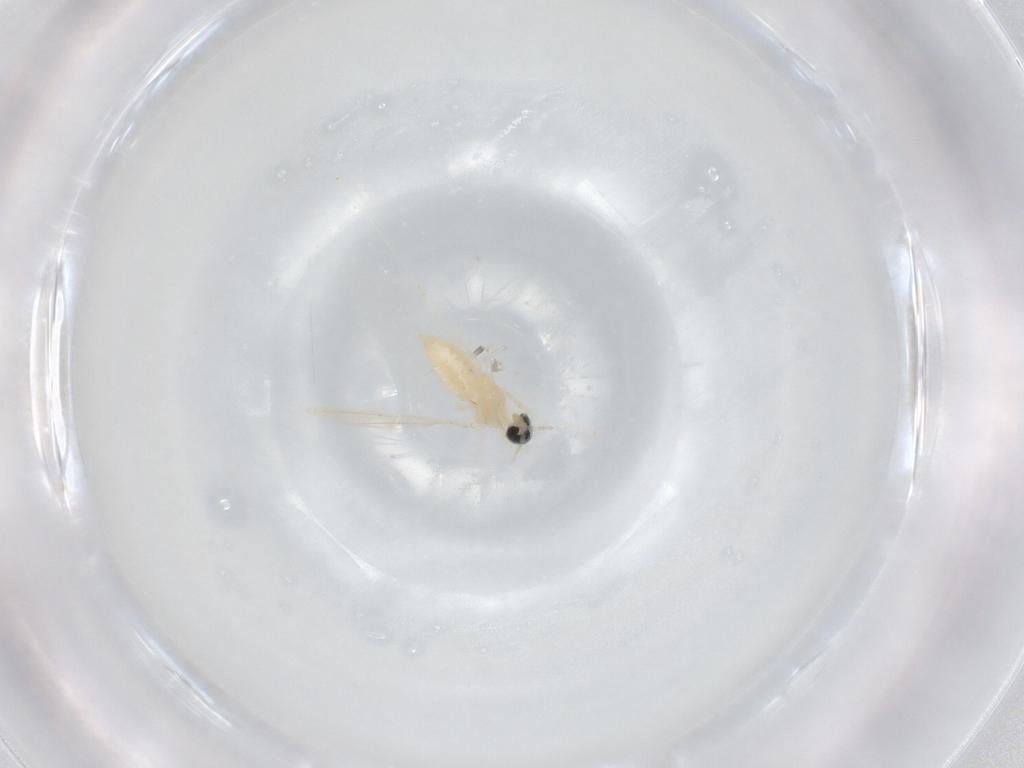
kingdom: Animalia
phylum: Arthropoda
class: Insecta
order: Diptera
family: Cecidomyiidae
